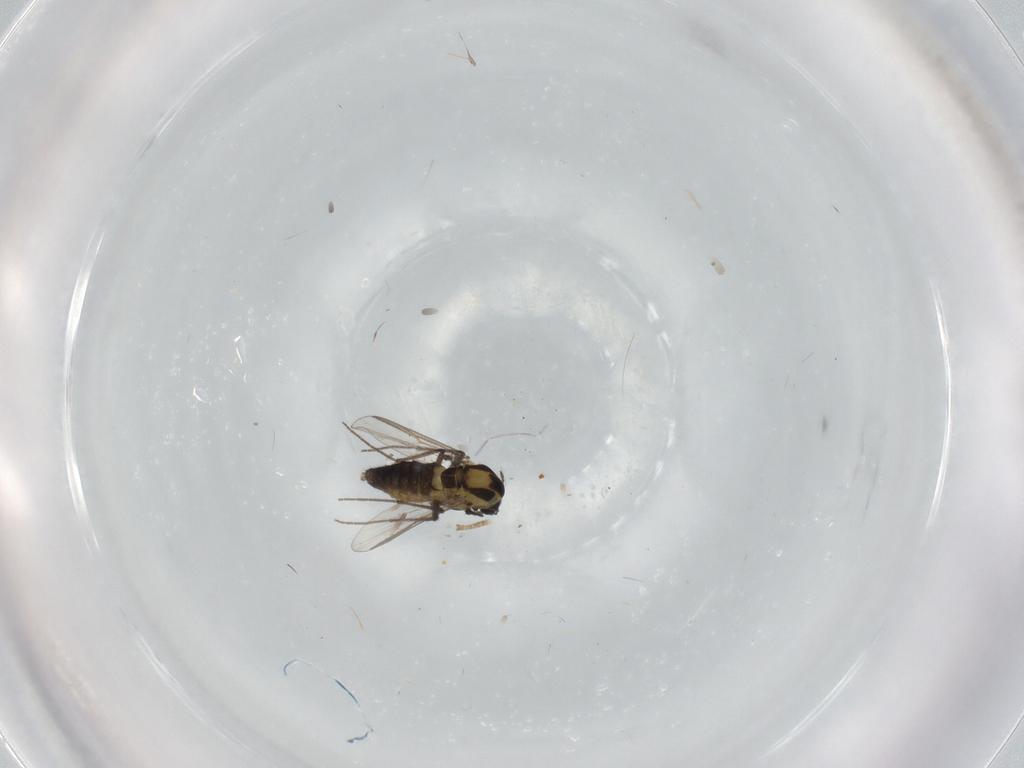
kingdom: Animalia
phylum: Arthropoda
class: Insecta
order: Diptera
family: Chironomidae
